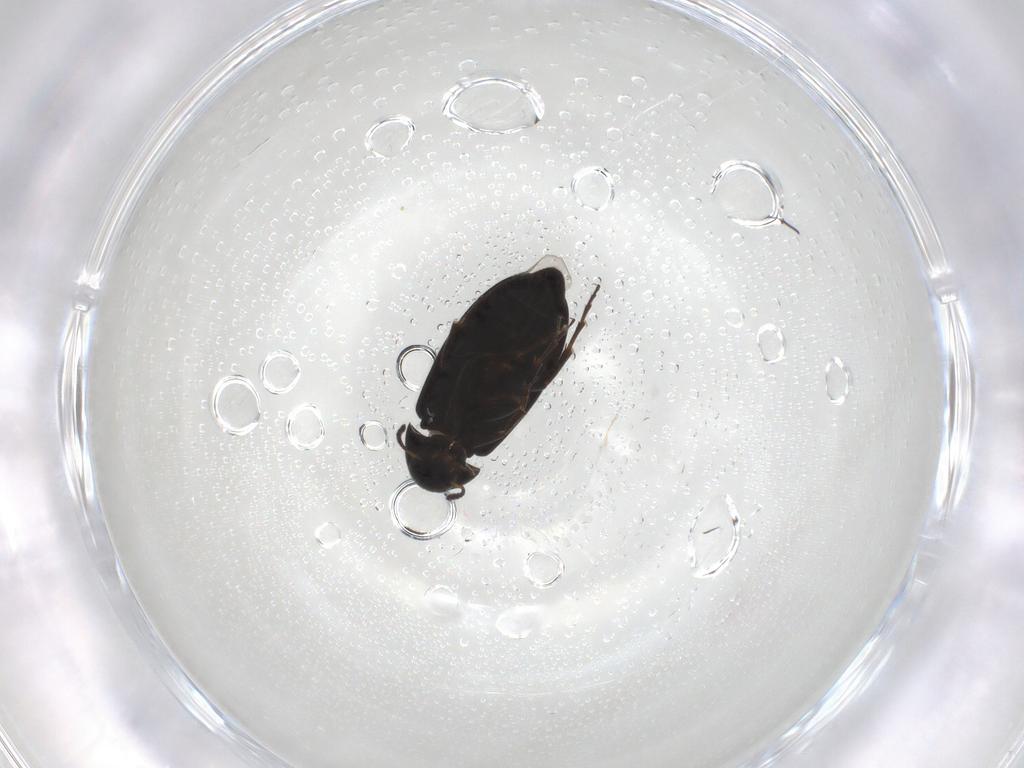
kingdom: Animalia
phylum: Arthropoda
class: Insecta
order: Coleoptera
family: Scraptiidae
